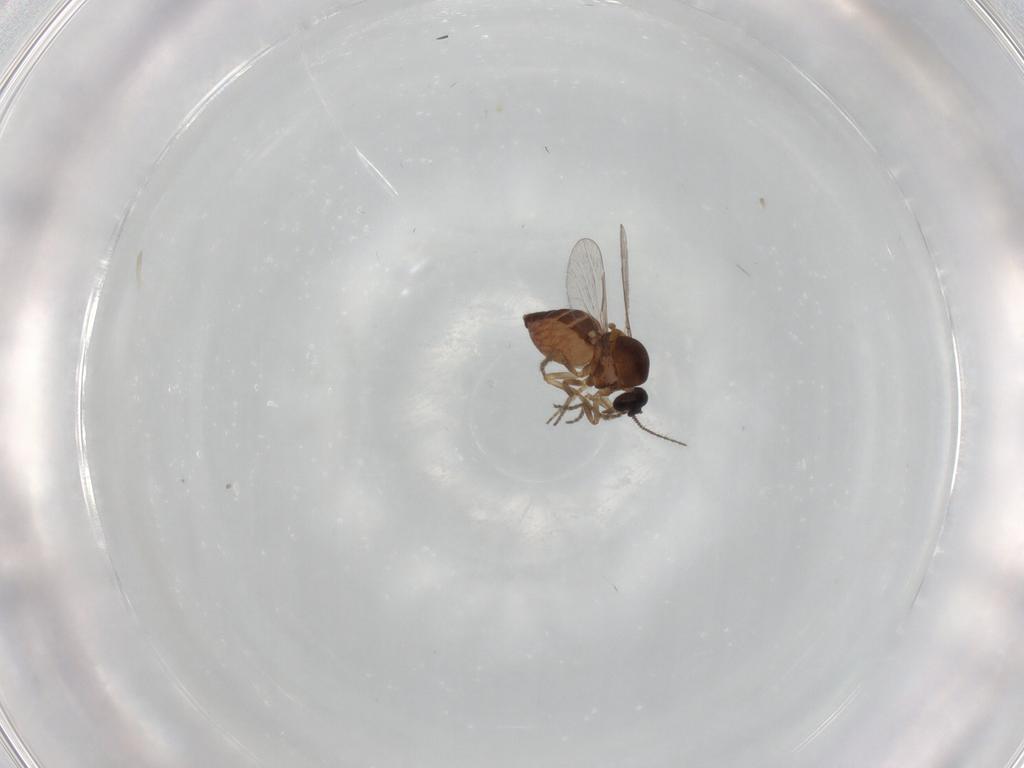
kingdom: Animalia
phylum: Arthropoda
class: Insecta
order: Diptera
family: Ceratopogonidae
